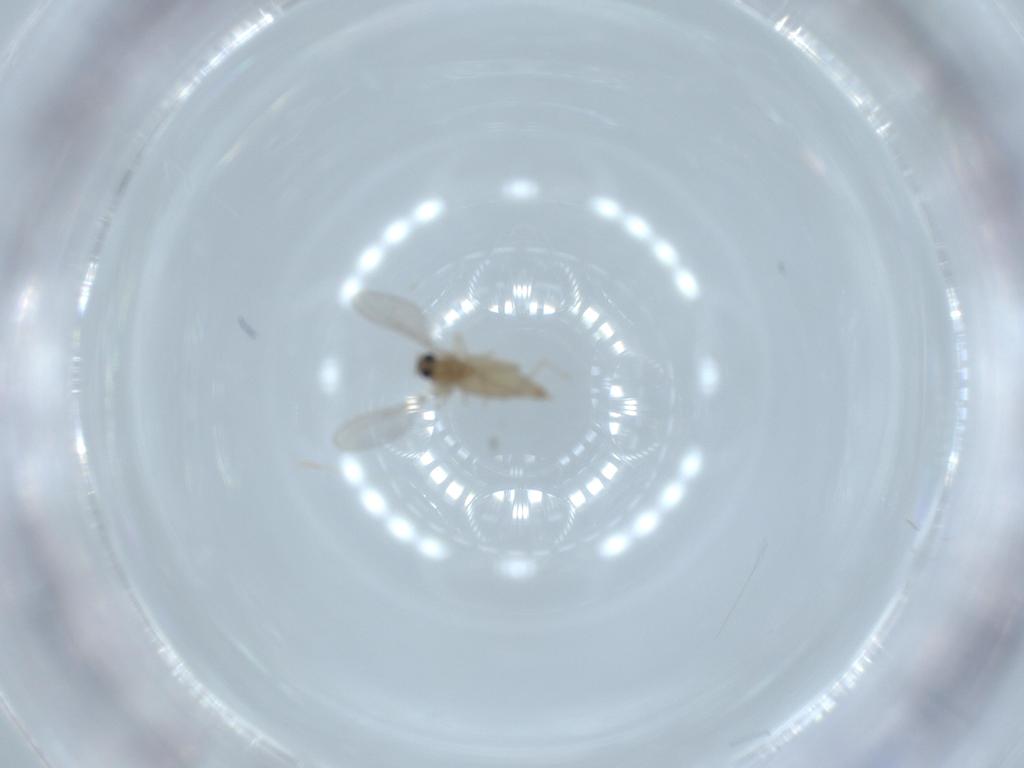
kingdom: Animalia
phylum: Arthropoda
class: Insecta
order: Diptera
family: Cecidomyiidae
